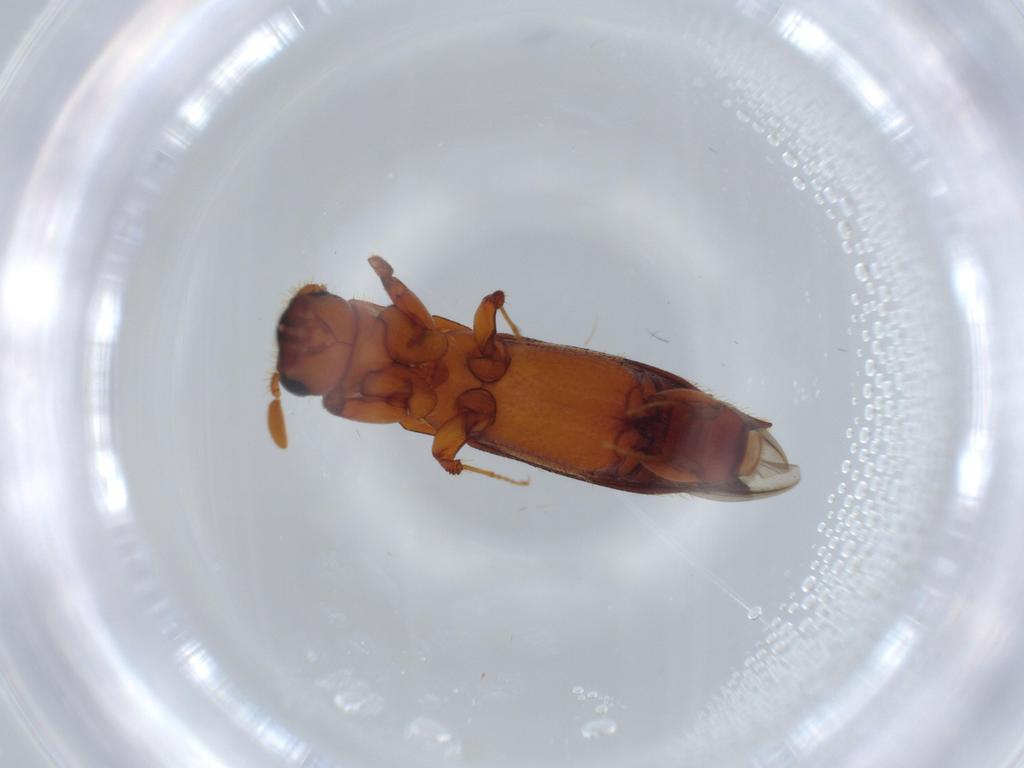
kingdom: Animalia
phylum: Arthropoda
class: Insecta
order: Coleoptera
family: Curculionidae
